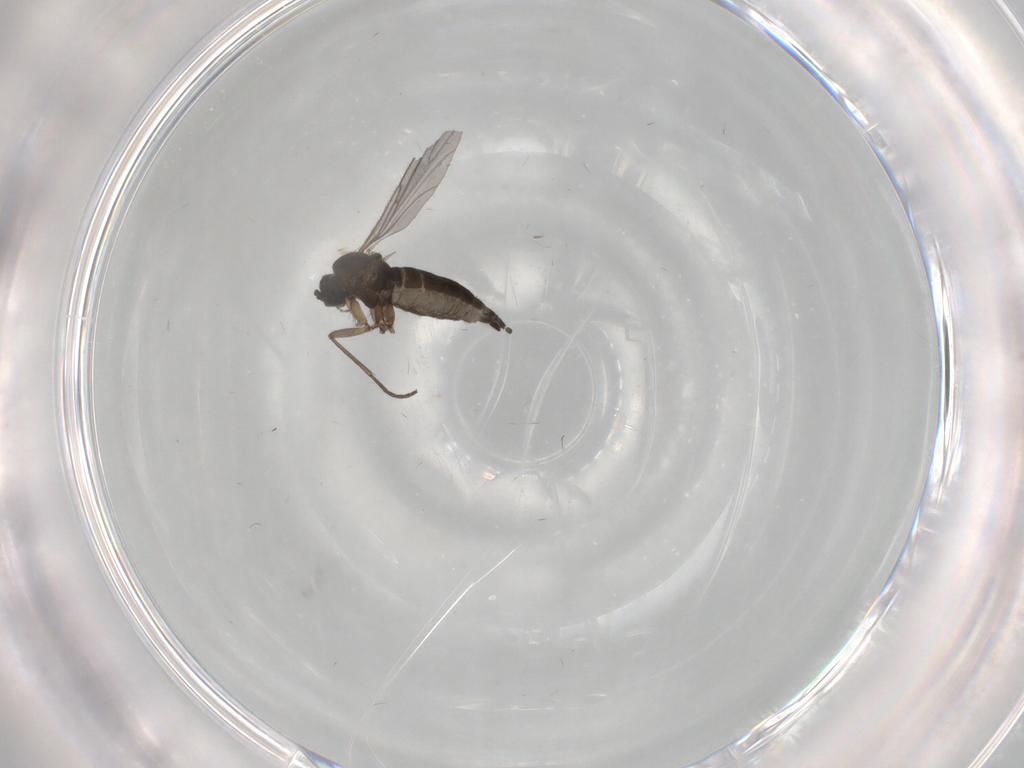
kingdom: Animalia
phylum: Arthropoda
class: Insecta
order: Diptera
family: Sciaridae
